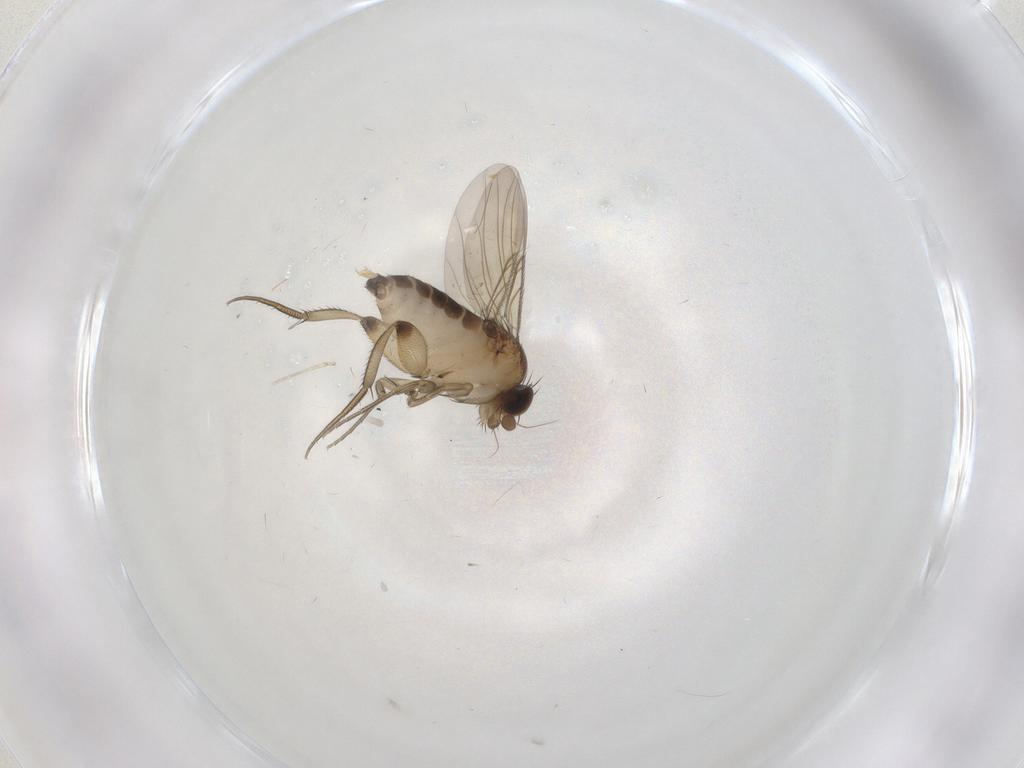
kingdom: Animalia
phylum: Arthropoda
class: Insecta
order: Diptera
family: Phoridae
